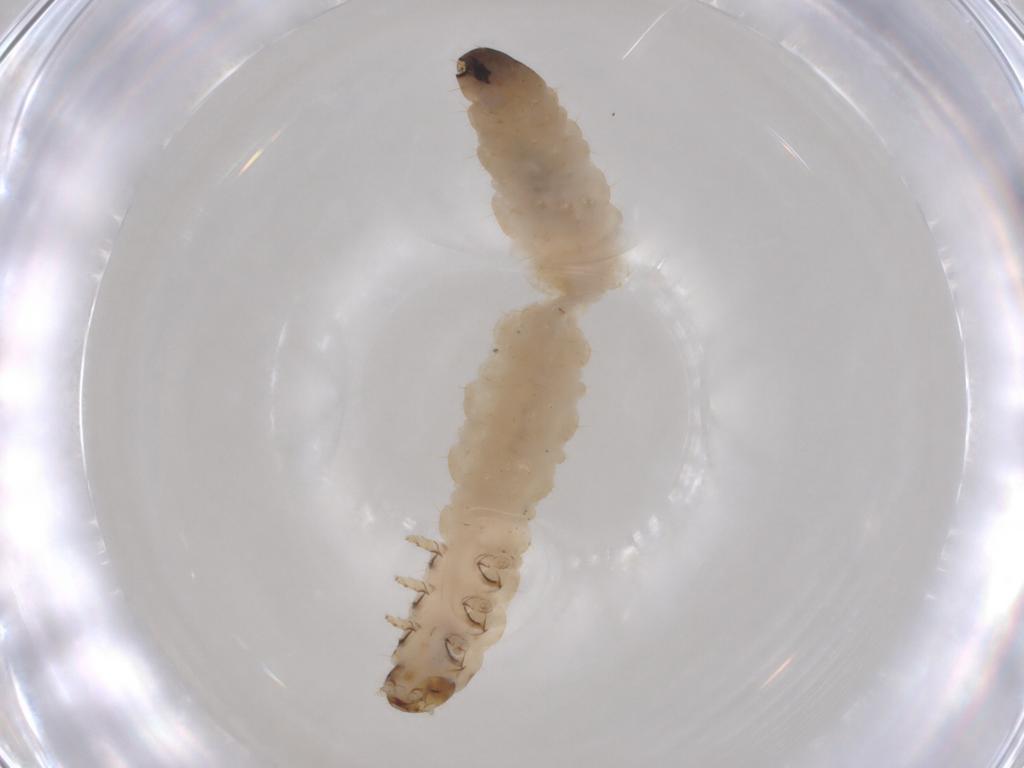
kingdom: Animalia
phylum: Arthropoda
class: Insecta
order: Coleoptera
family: Chrysomelidae
